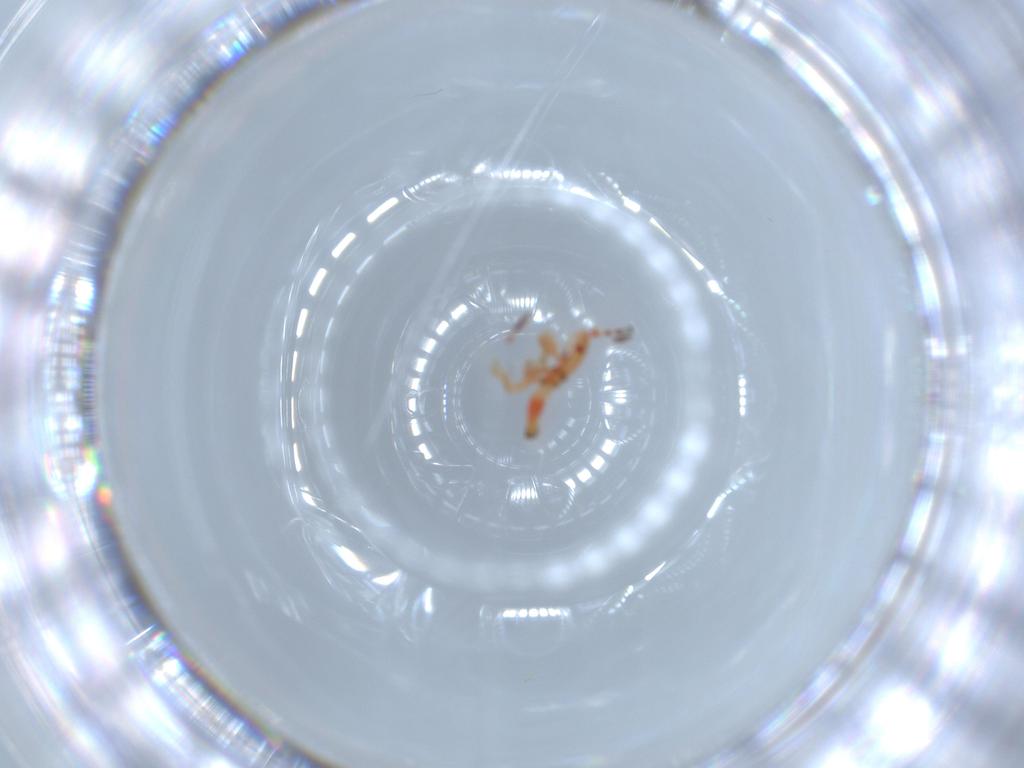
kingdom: Animalia
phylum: Arthropoda
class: Insecta
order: Hemiptera
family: Blissidae
